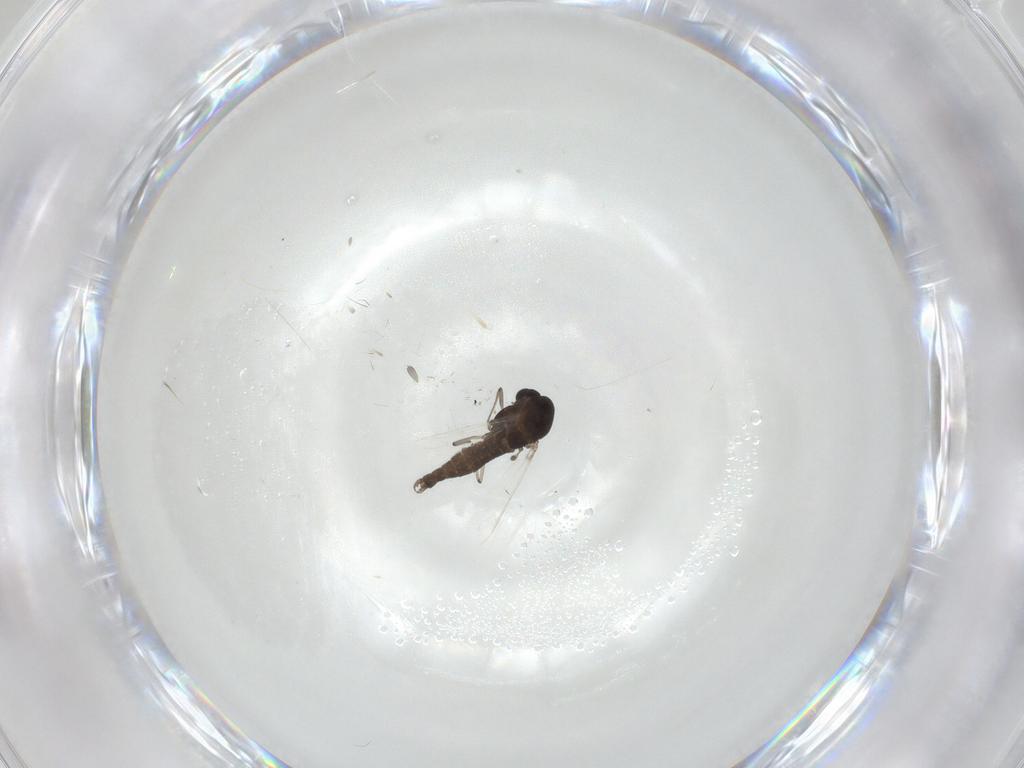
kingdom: Animalia
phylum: Arthropoda
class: Insecta
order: Diptera
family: Chironomidae
